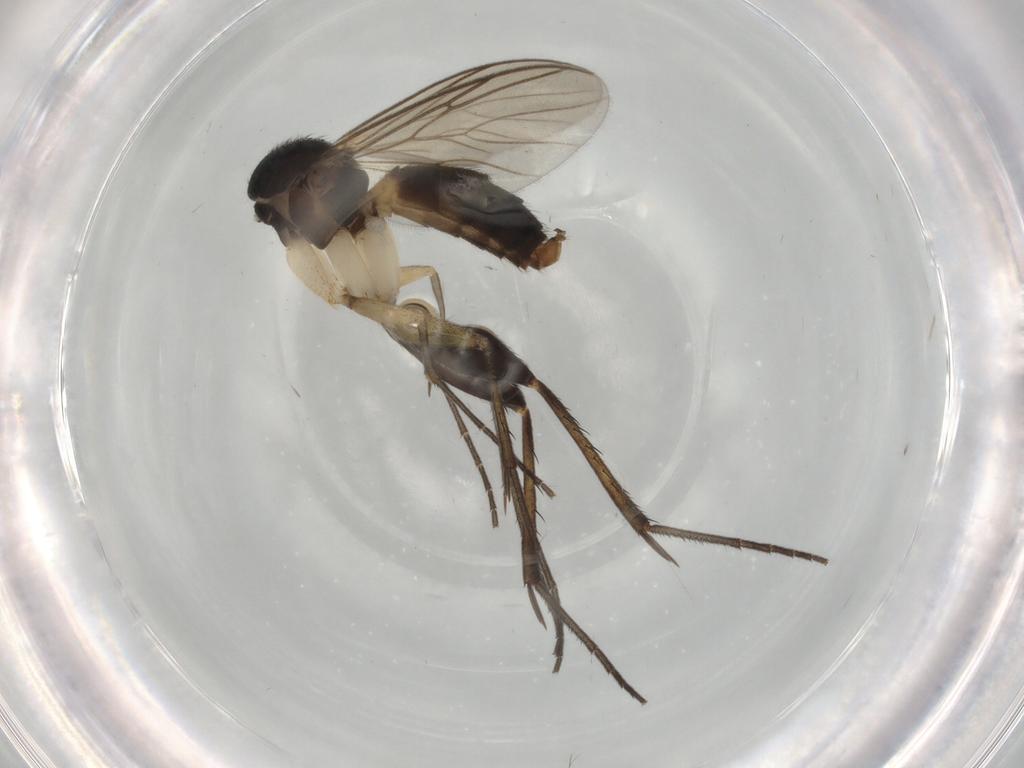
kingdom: Animalia
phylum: Arthropoda
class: Insecta
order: Diptera
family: Mycetophilidae
